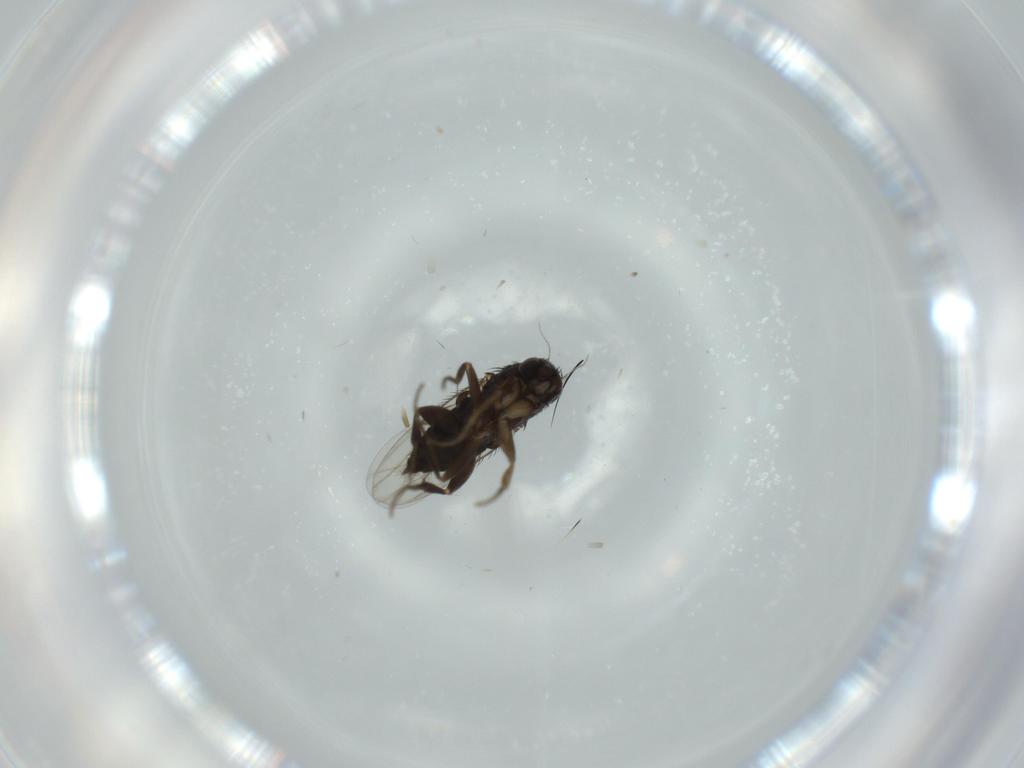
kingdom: Animalia
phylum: Arthropoda
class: Insecta
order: Diptera
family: Phoridae
